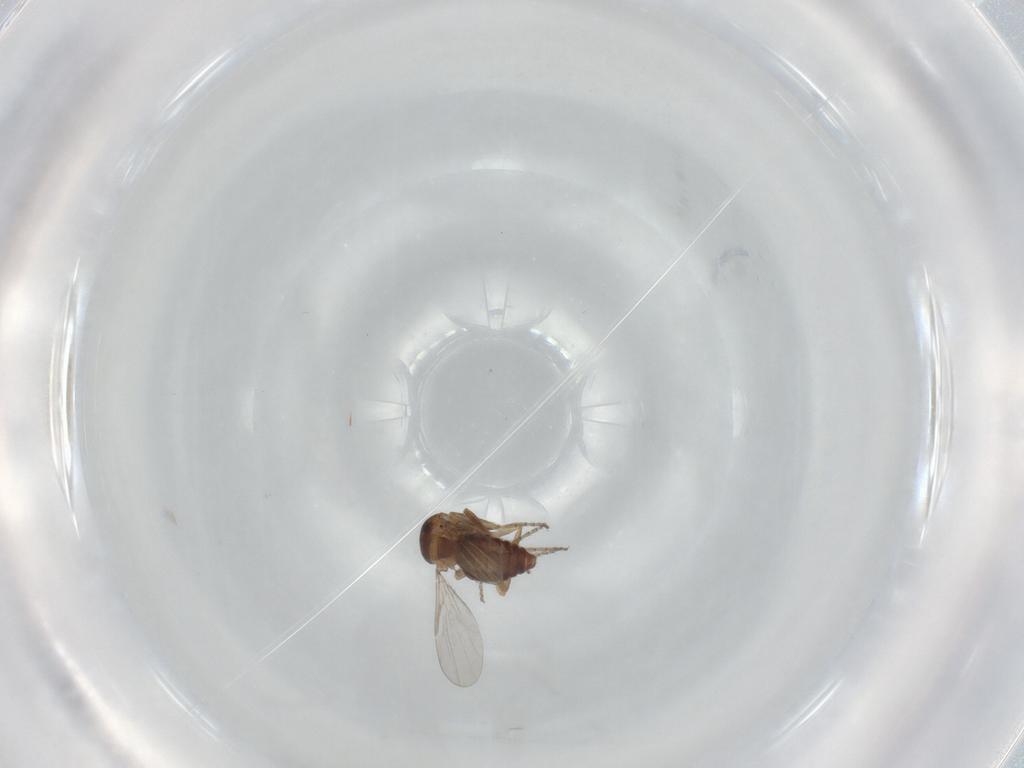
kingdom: Animalia
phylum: Arthropoda
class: Insecta
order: Diptera
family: Ceratopogonidae
